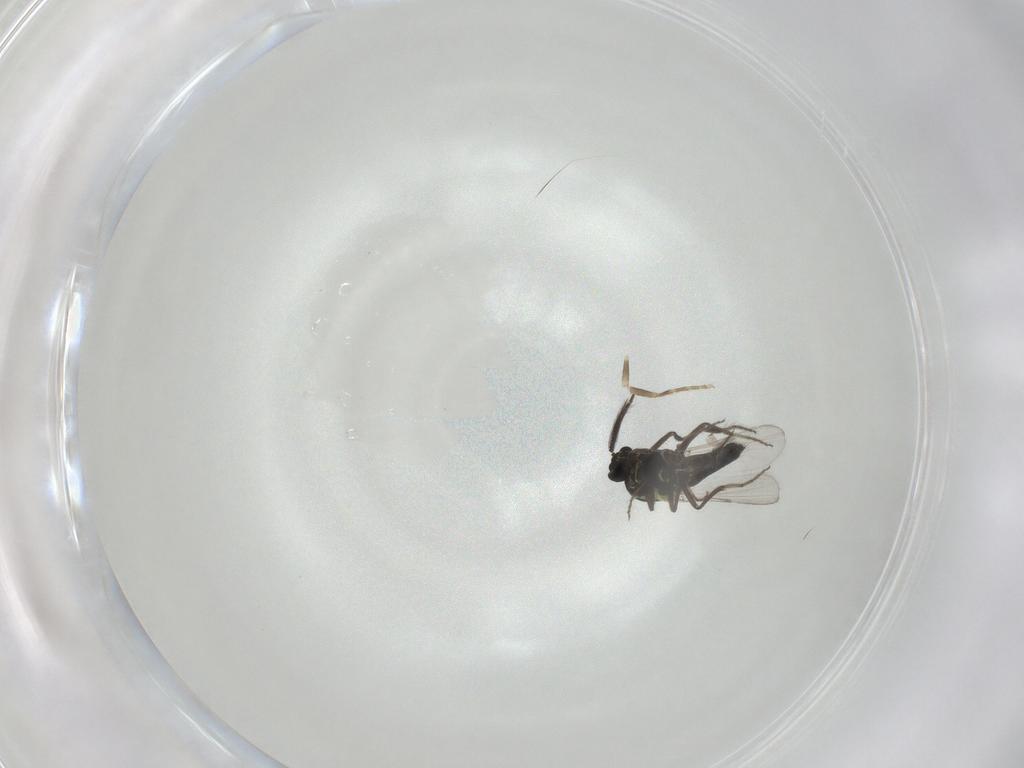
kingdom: Animalia
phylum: Arthropoda
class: Insecta
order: Diptera
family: Ceratopogonidae
